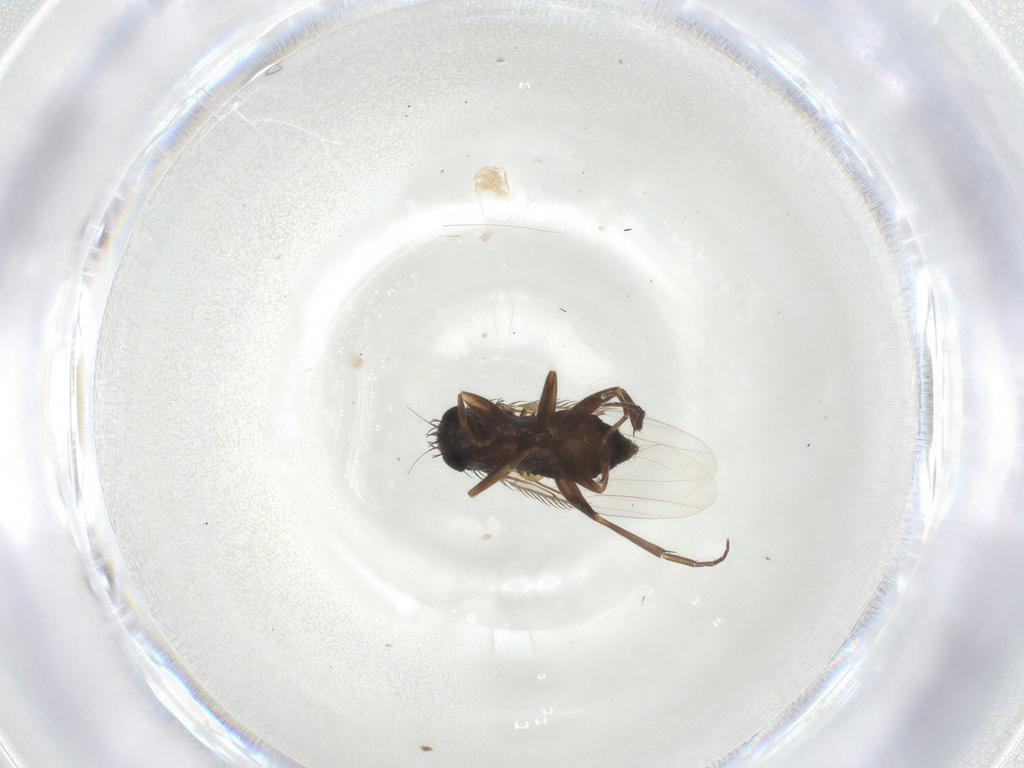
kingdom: Animalia
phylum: Arthropoda
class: Insecta
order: Diptera
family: Phoridae
